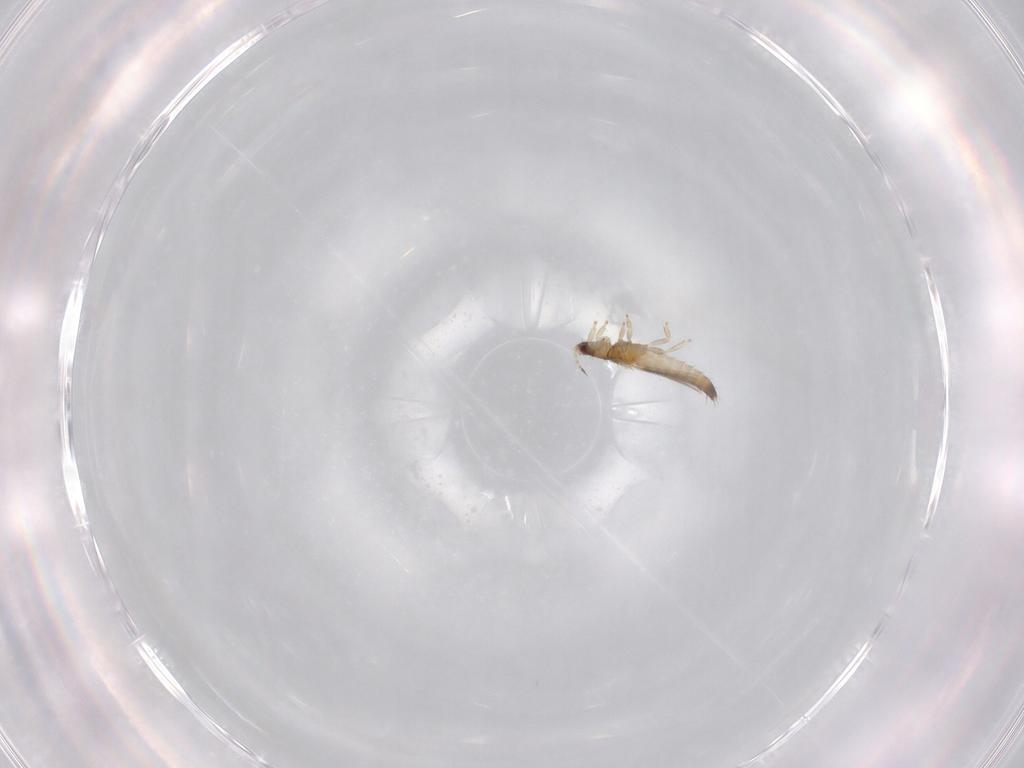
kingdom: Animalia
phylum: Arthropoda
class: Insecta
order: Thysanoptera
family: Thripidae
